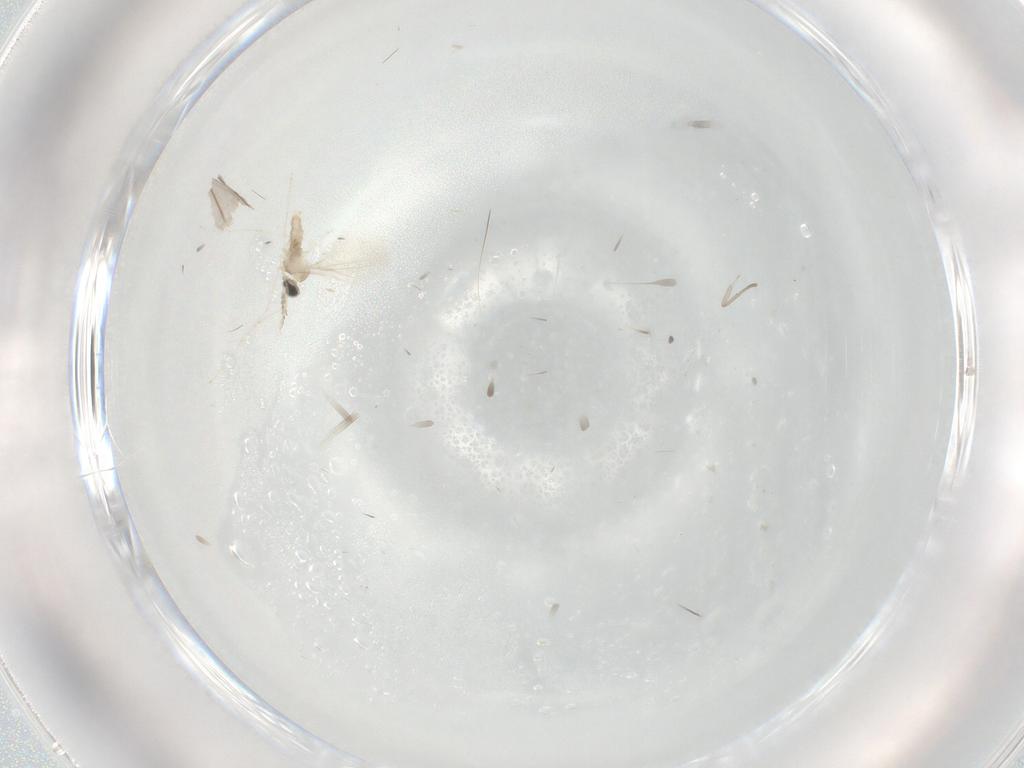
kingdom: Animalia
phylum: Arthropoda
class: Insecta
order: Diptera
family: Psychodidae
